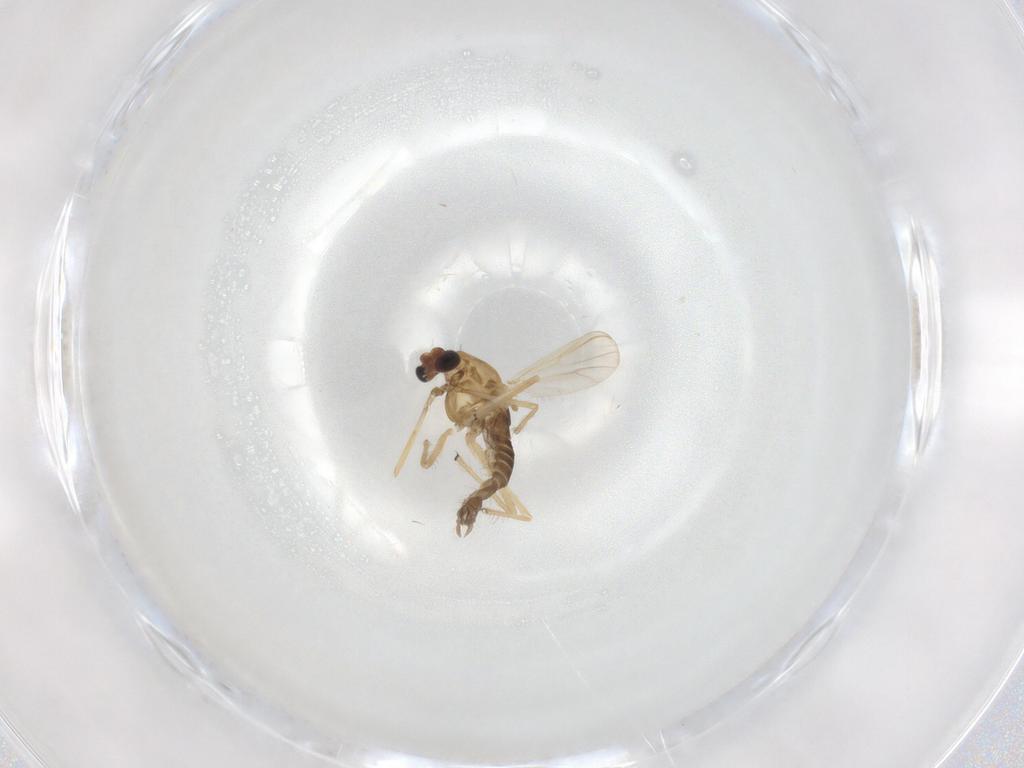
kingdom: Animalia
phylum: Arthropoda
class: Insecta
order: Diptera
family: Chironomidae
